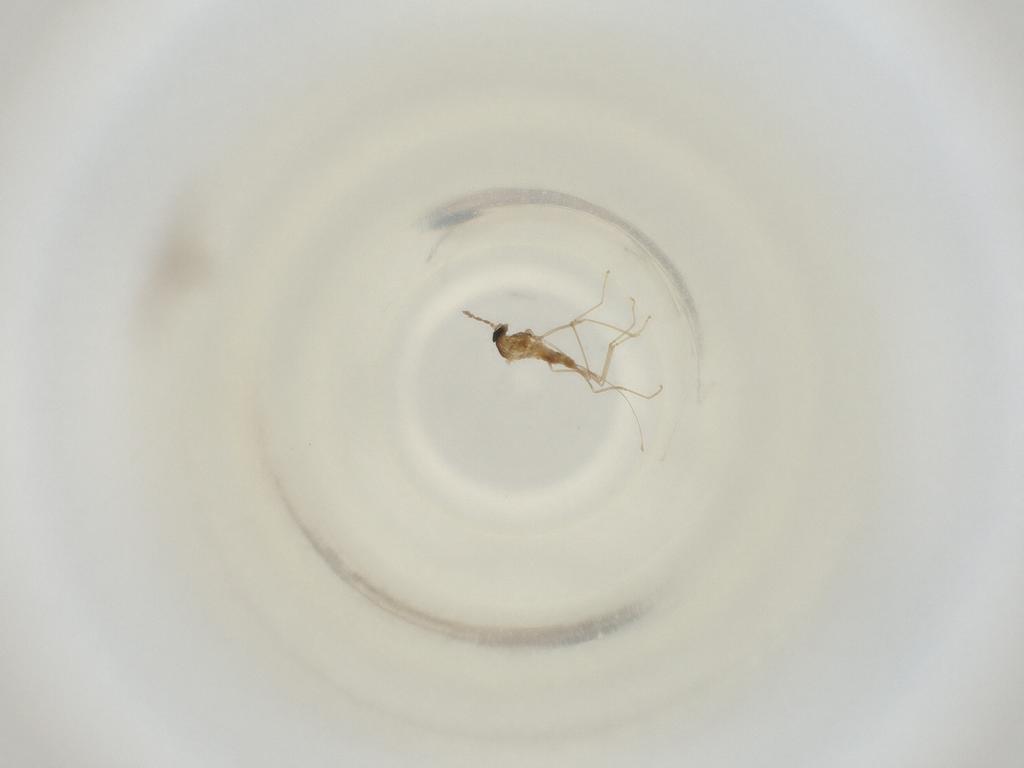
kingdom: Animalia
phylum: Arthropoda
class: Insecta
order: Diptera
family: Cecidomyiidae
